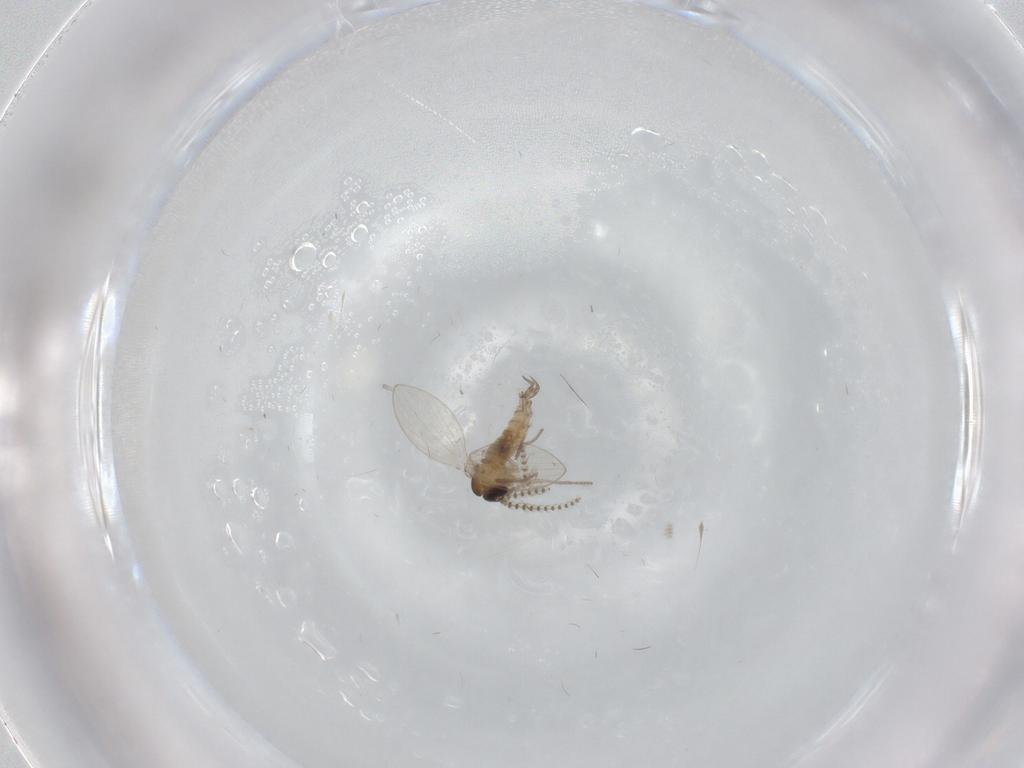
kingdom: Animalia
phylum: Arthropoda
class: Insecta
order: Diptera
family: Psychodidae
